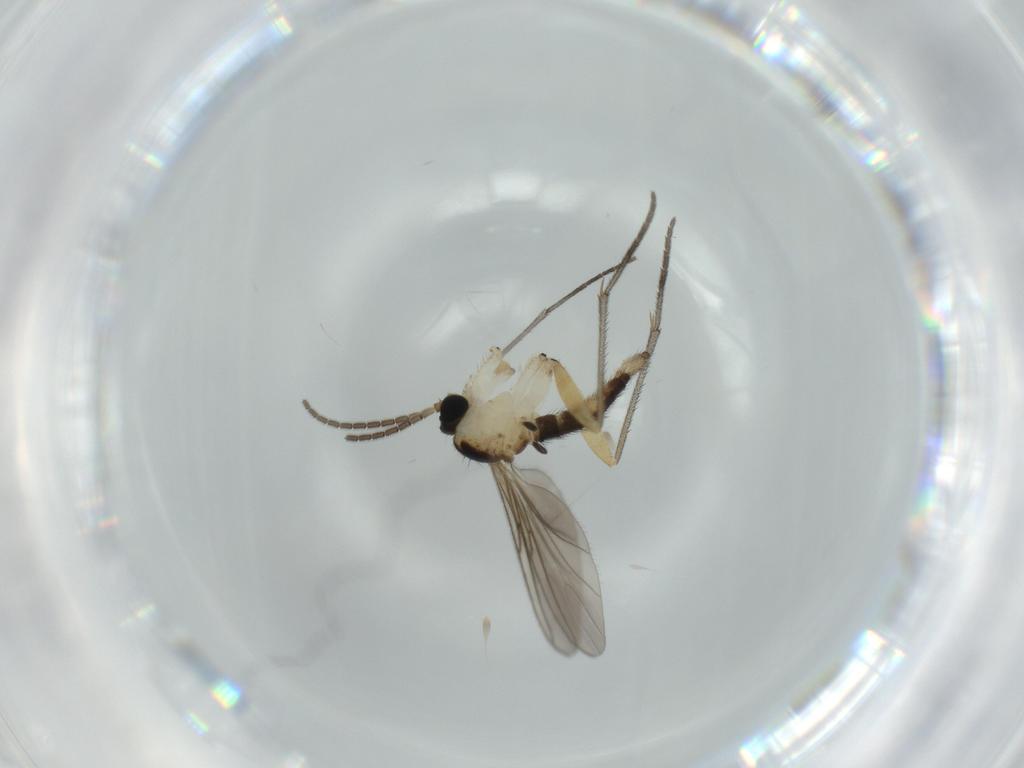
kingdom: Animalia
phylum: Arthropoda
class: Insecta
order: Diptera
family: Sciaridae
